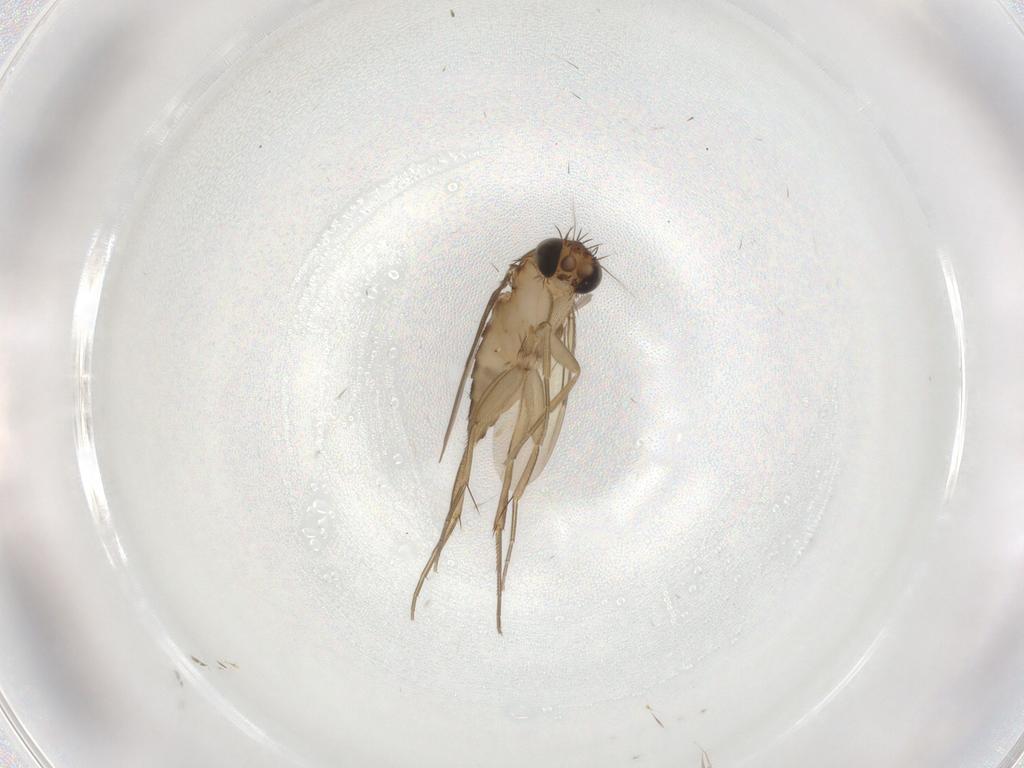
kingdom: Animalia
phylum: Arthropoda
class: Insecta
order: Diptera
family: Phoridae
